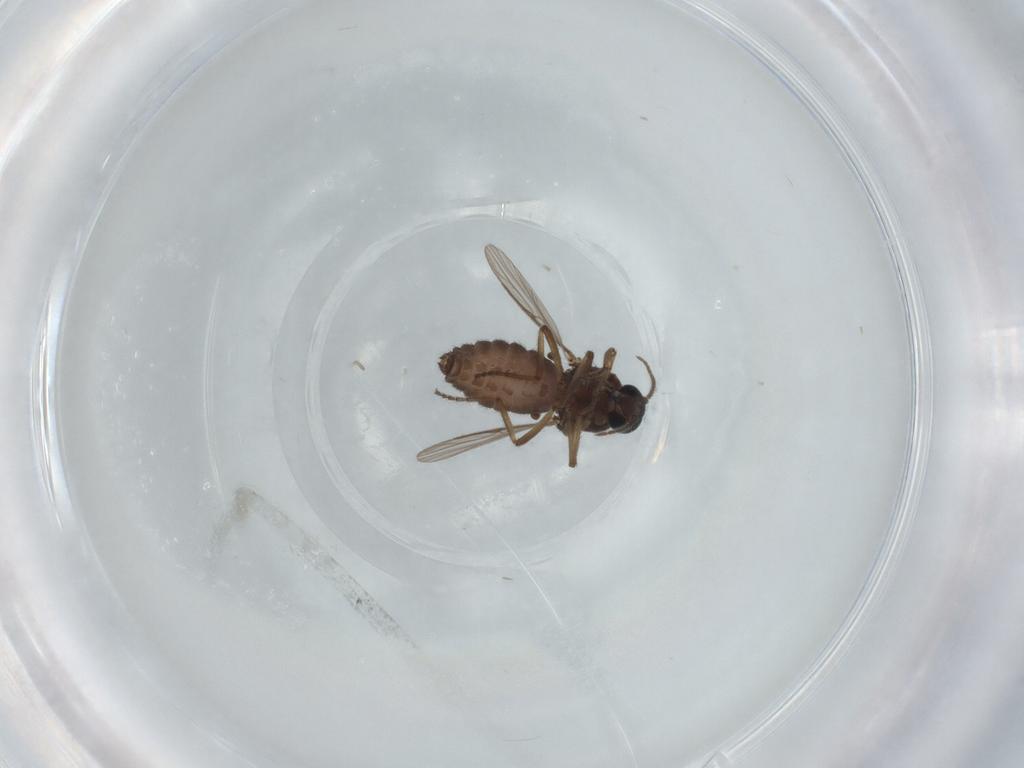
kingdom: Animalia
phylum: Arthropoda
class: Insecta
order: Diptera
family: Ceratopogonidae
